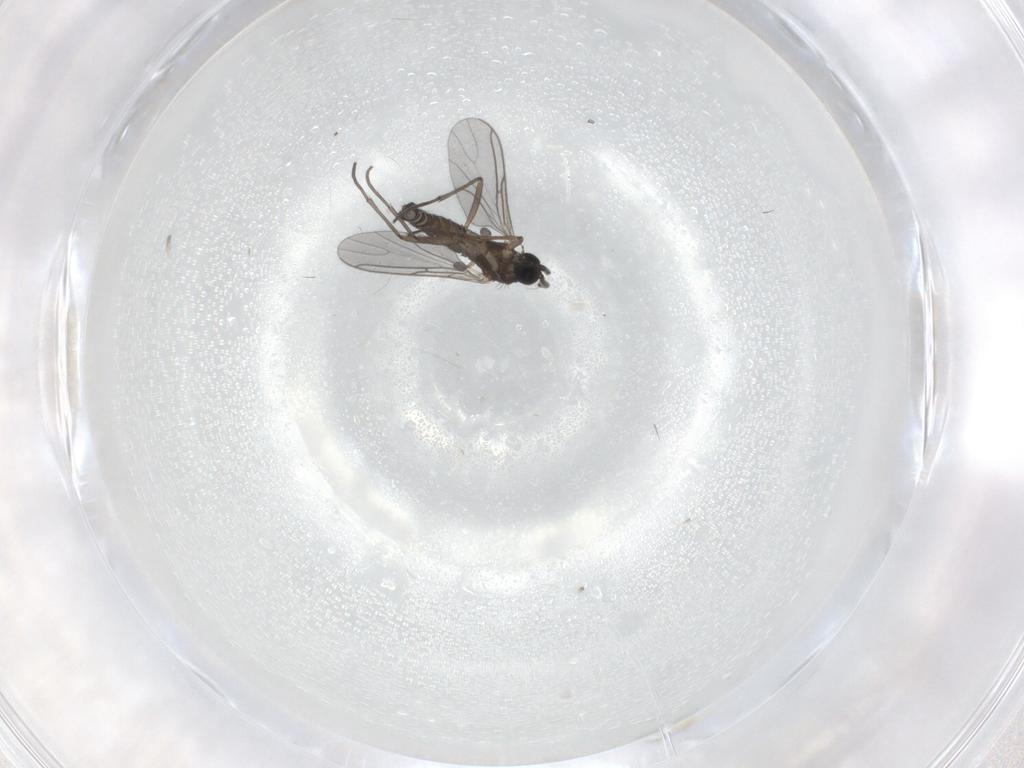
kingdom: Animalia
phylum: Arthropoda
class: Insecta
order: Diptera
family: Sciaridae
